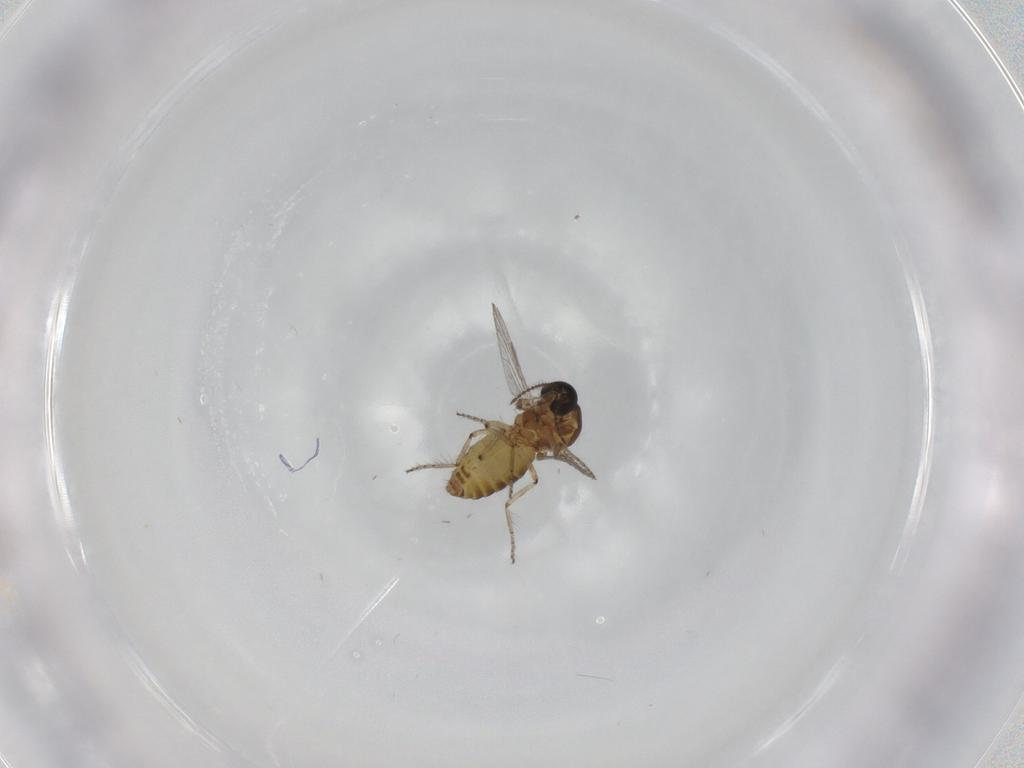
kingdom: Animalia
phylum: Arthropoda
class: Insecta
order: Diptera
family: Ceratopogonidae
